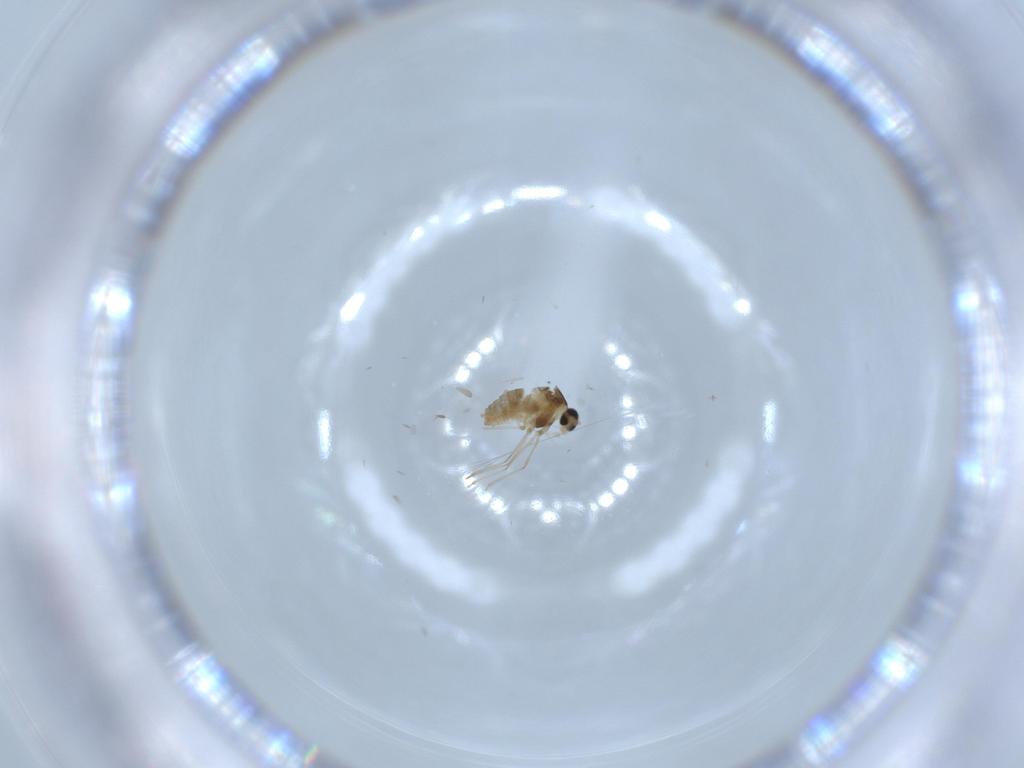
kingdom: Animalia
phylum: Arthropoda
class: Insecta
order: Diptera
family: Cecidomyiidae
